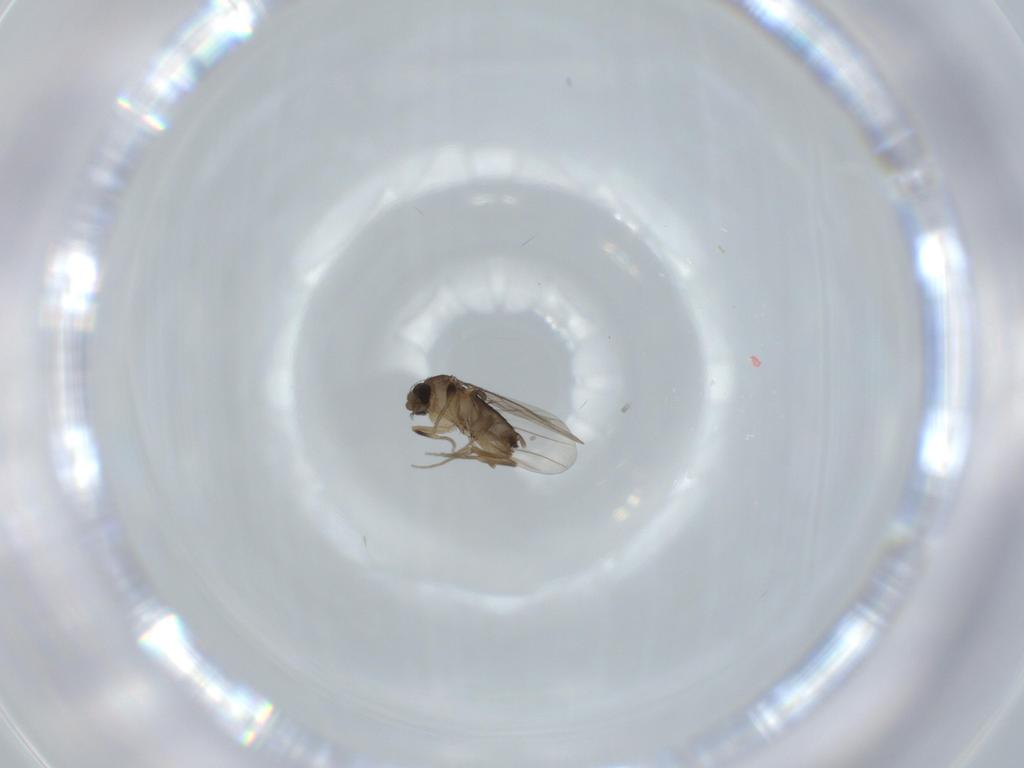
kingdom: Animalia
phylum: Arthropoda
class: Insecta
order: Diptera
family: Phoridae
